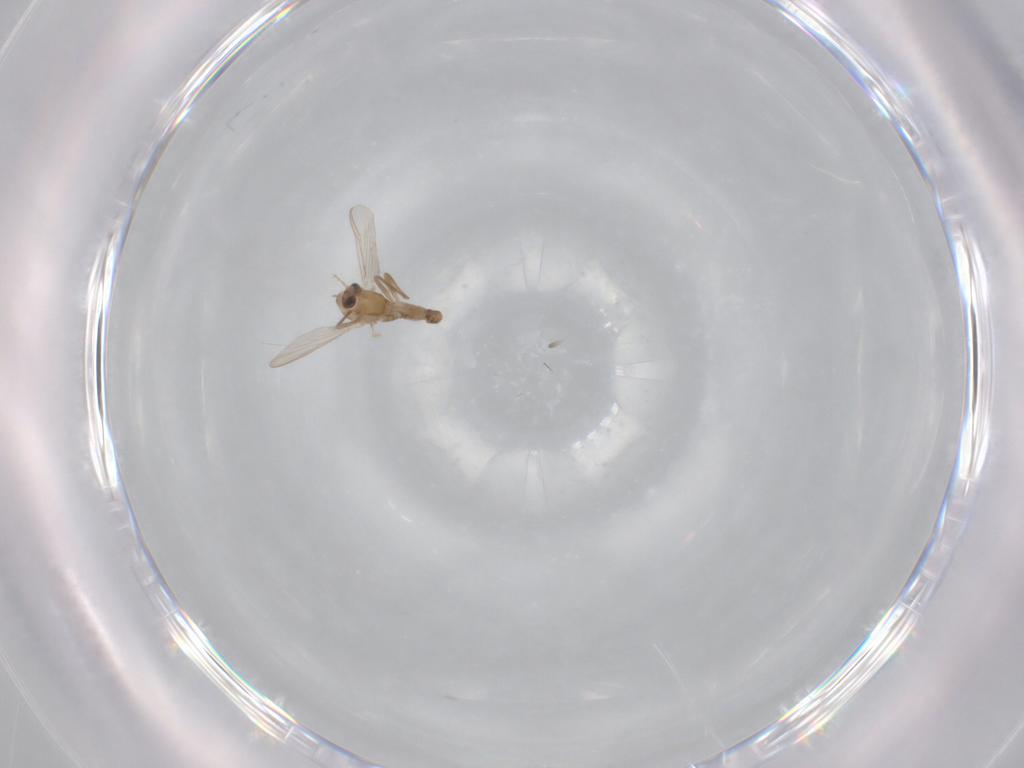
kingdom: Animalia
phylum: Arthropoda
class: Insecta
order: Diptera
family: Chironomidae
